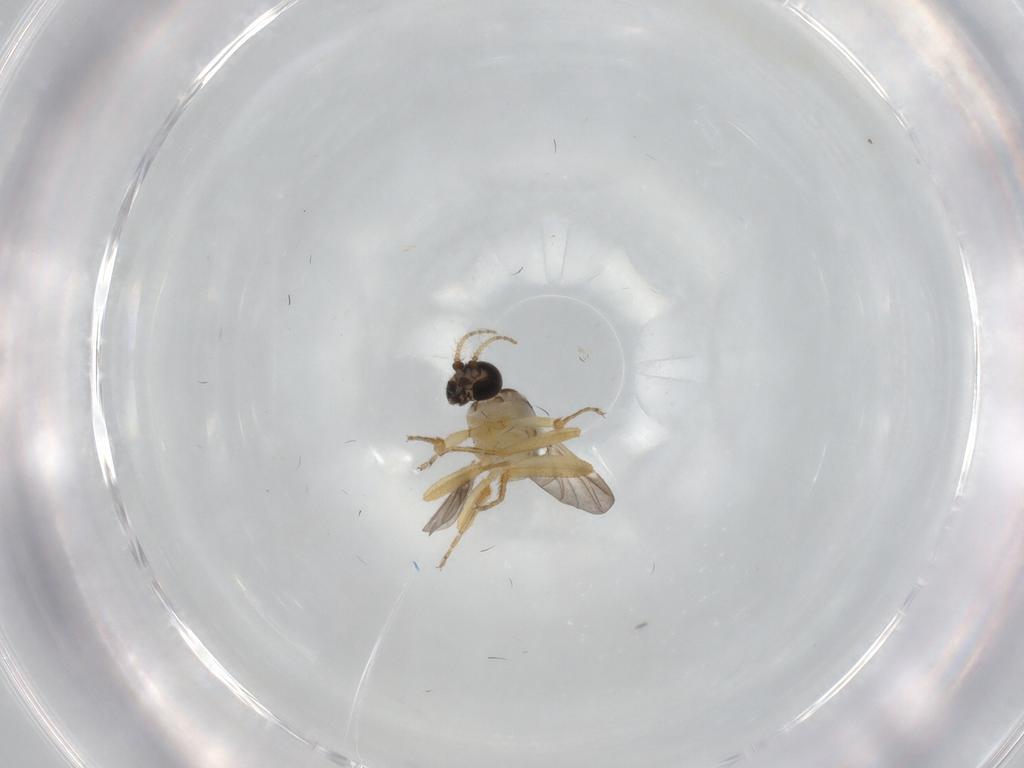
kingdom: Animalia
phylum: Arthropoda
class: Insecta
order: Diptera
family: Ceratopogonidae
